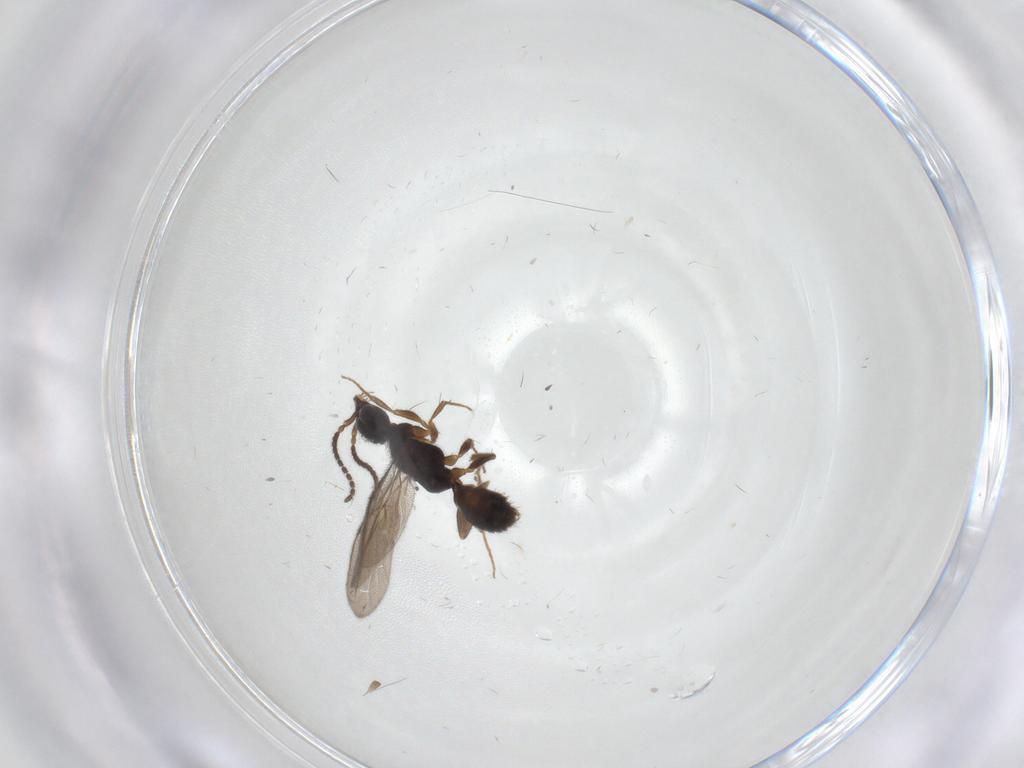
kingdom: Animalia
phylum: Arthropoda
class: Insecta
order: Hymenoptera
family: Bethylidae
